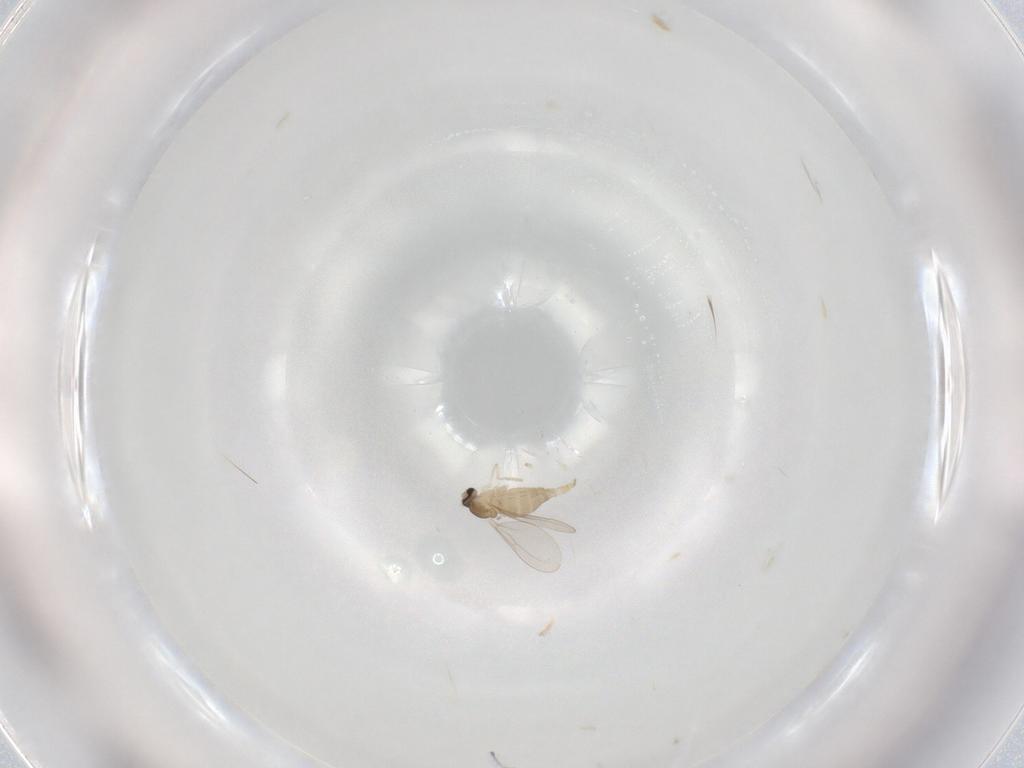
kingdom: Animalia
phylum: Arthropoda
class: Insecta
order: Diptera
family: Cecidomyiidae
